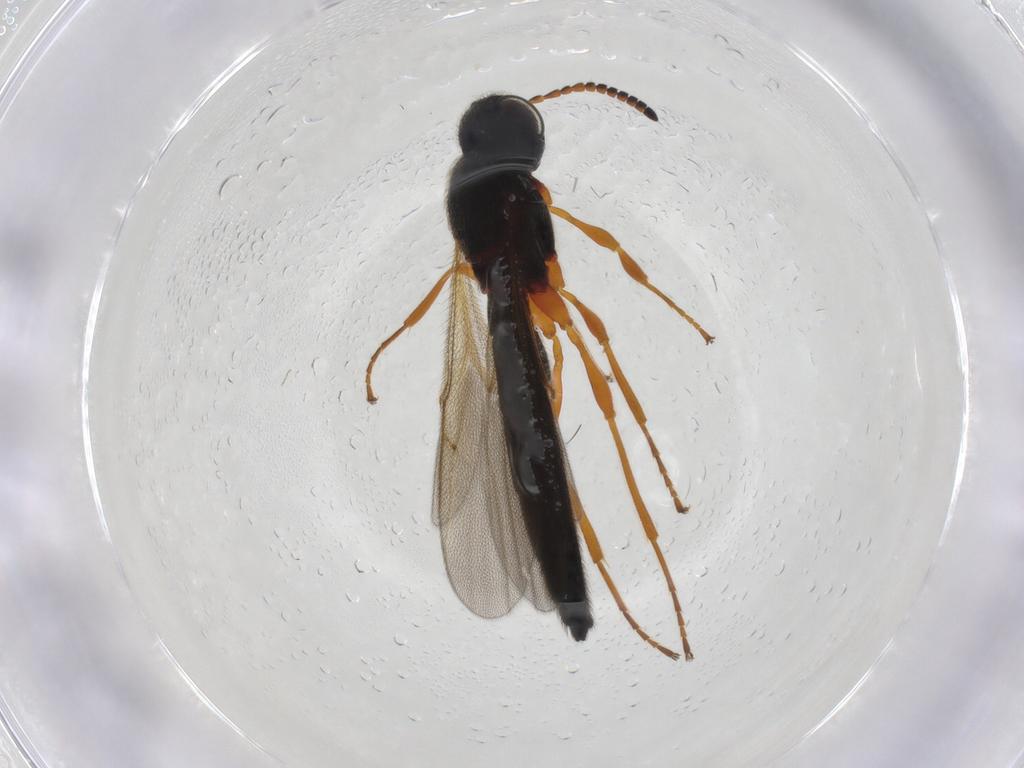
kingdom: Animalia
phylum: Arthropoda
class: Insecta
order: Hymenoptera
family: Scelionidae
